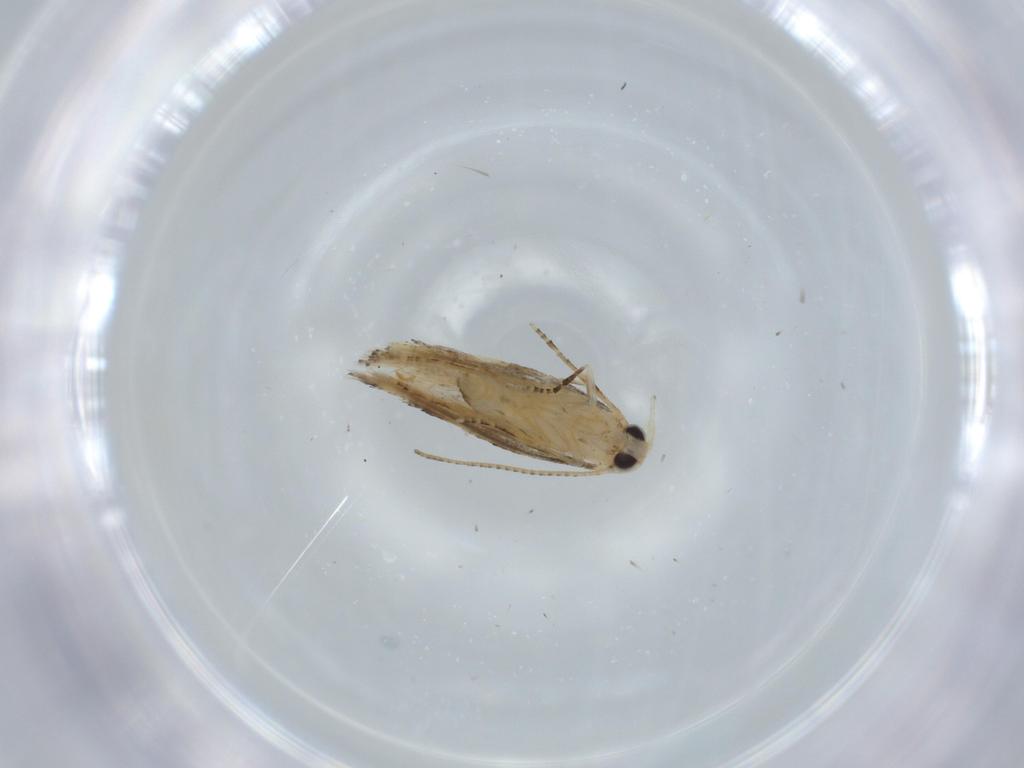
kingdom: Animalia
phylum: Arthropoda
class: Insecta
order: Lepidoptera
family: Bucculatricidae
